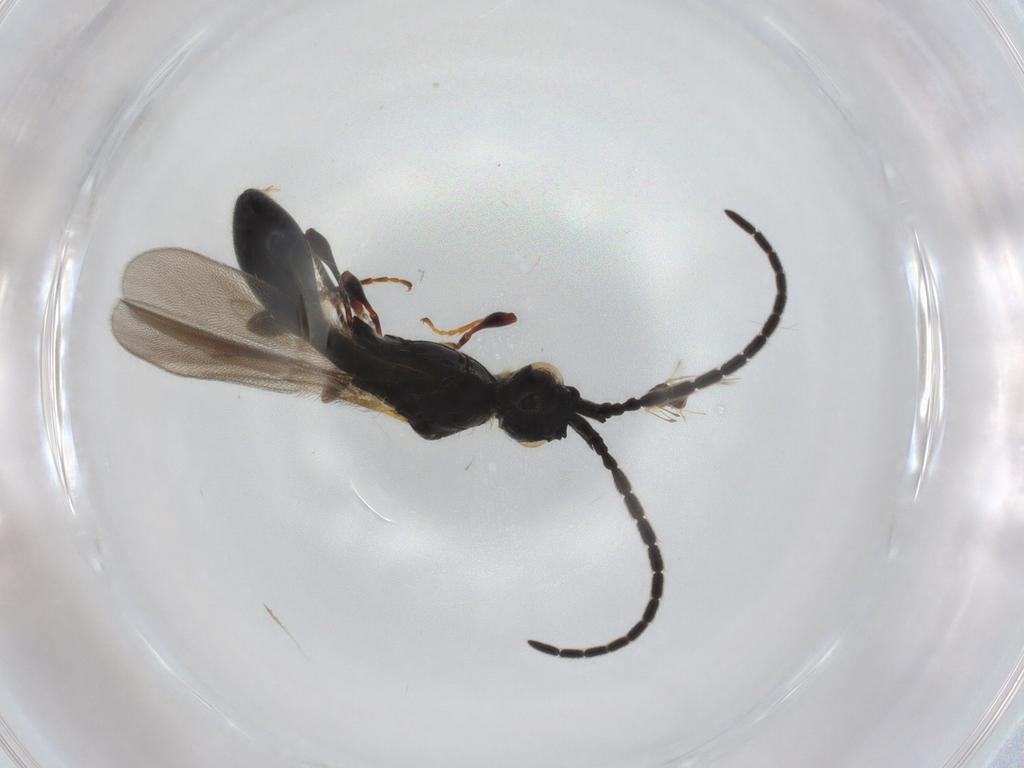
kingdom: Animalia
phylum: Arthropoda
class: Insecta
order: Hymenoptera
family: Diapriidae
